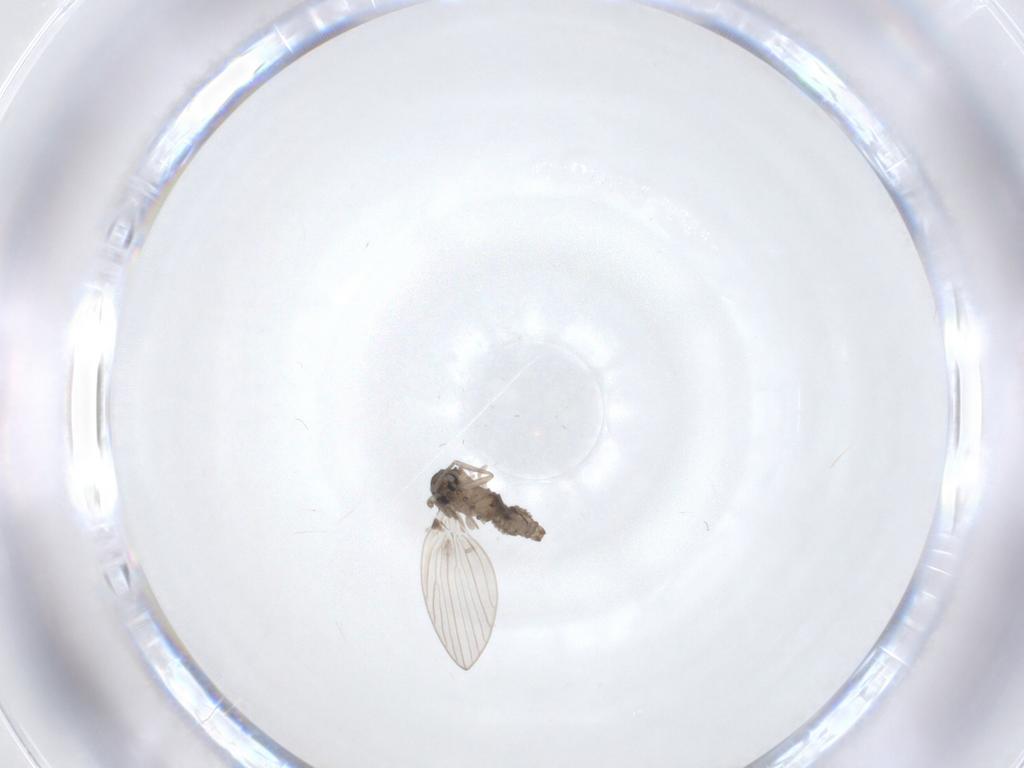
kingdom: Animalia
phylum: Arthropoda
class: Insecta
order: Diptera
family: Psychodidae
